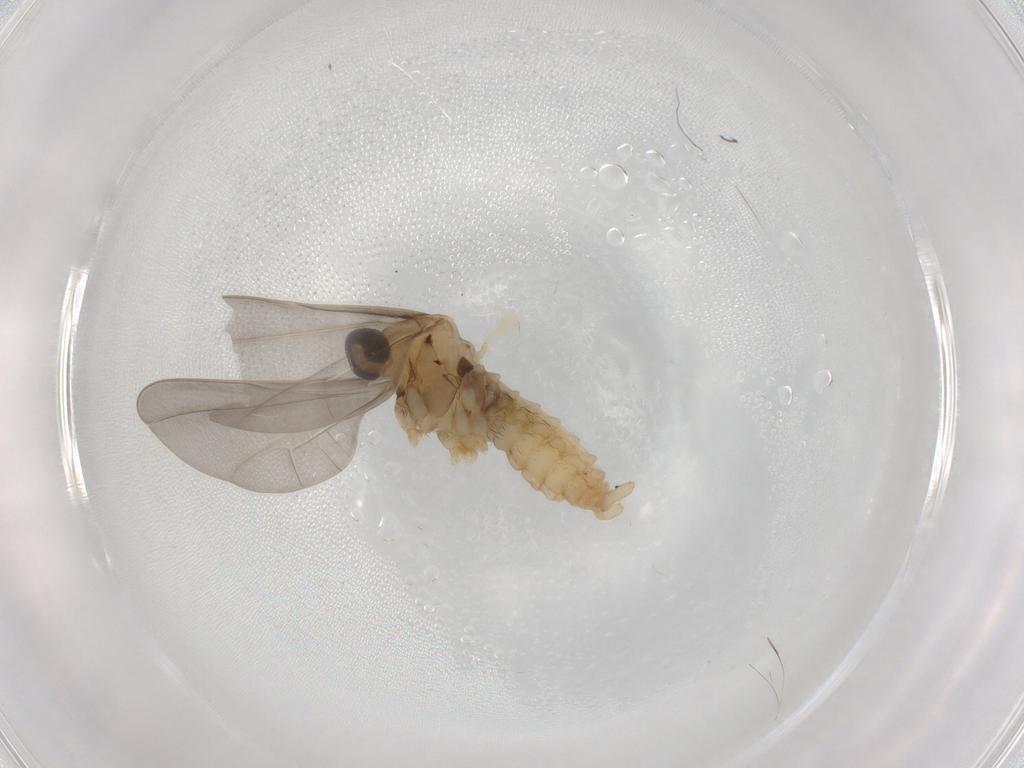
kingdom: Animalia
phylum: Arthropoda
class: Insecta
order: Diptera
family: Cecidomyiidae
